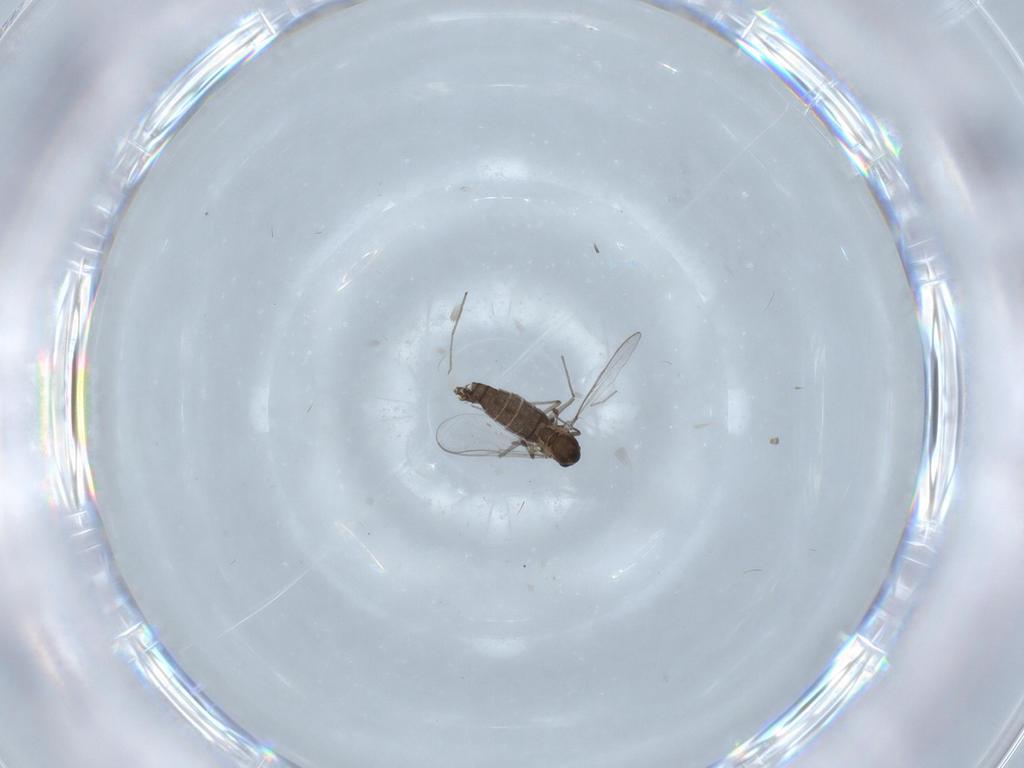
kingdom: Animalia
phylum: Arthropoda
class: Insecta
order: Diptera
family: Chironomidae
